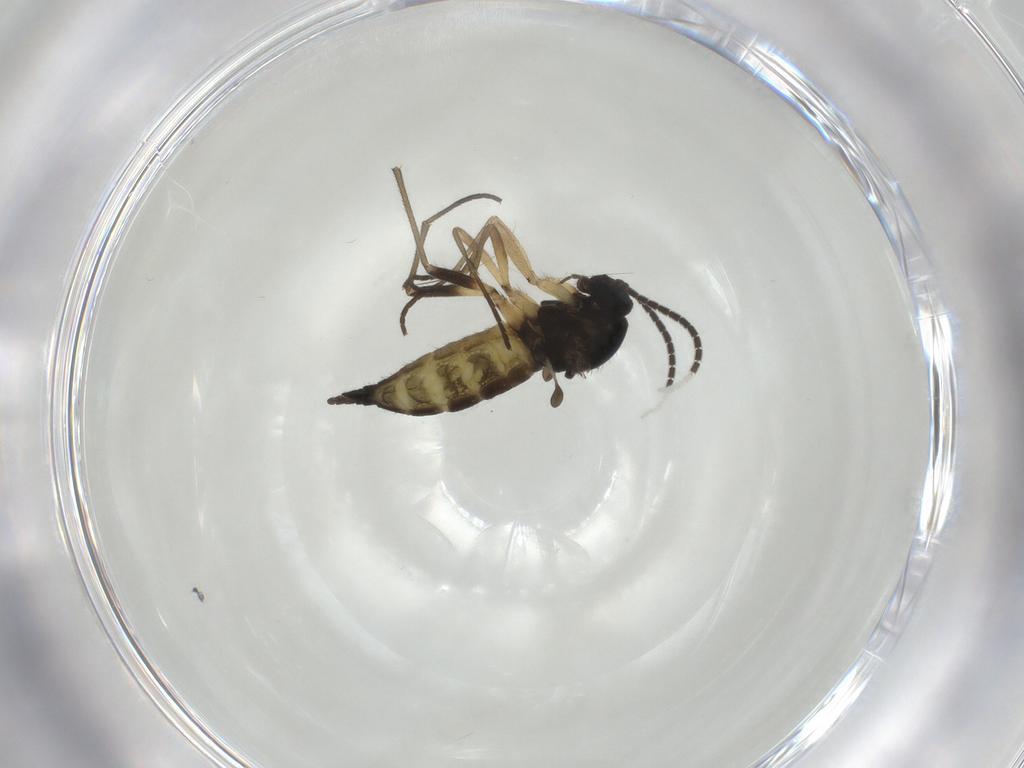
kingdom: Animalia
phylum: Arthropoda
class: Insecta
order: Diptera
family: Sciaridae
